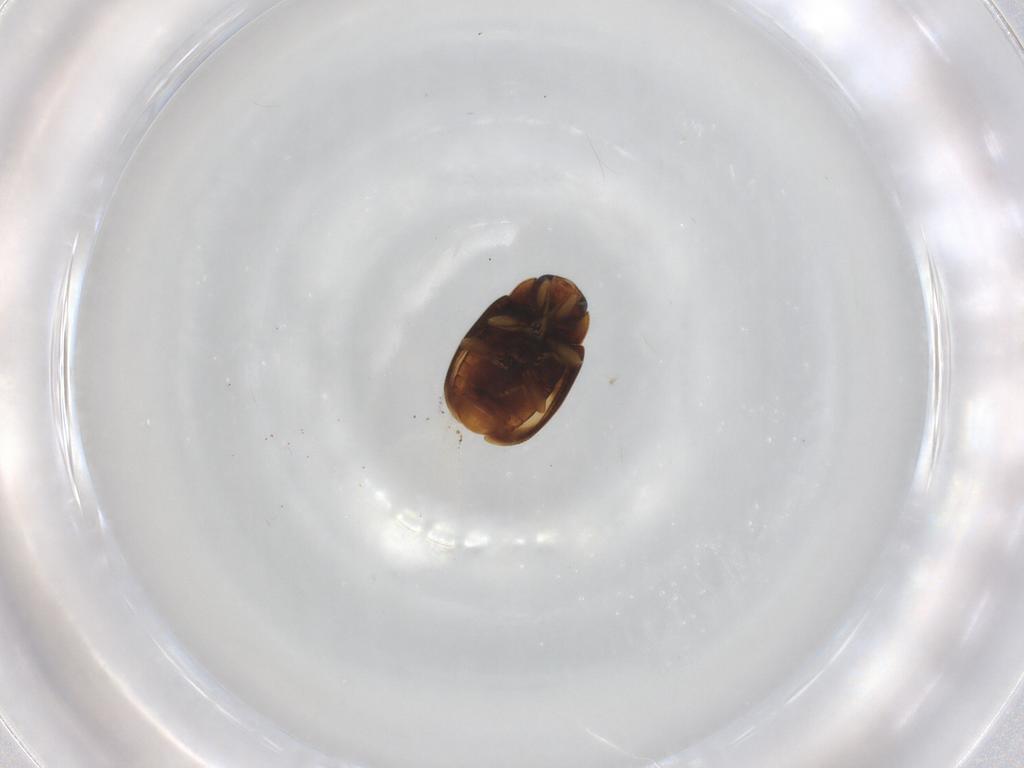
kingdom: Animalia
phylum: Arthropoda
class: Insecta
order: Coleoptera
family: Coccinellidae
